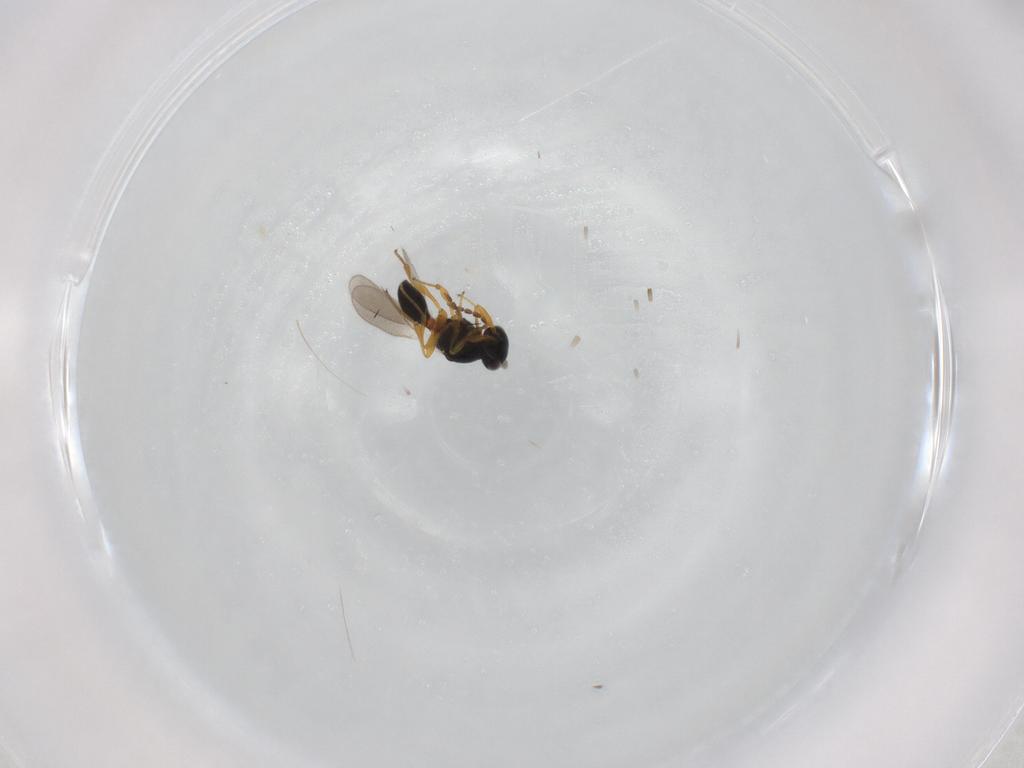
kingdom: Animalia
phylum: Arthropoda
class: Insecta
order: Hymenoptera
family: Platygastridae
